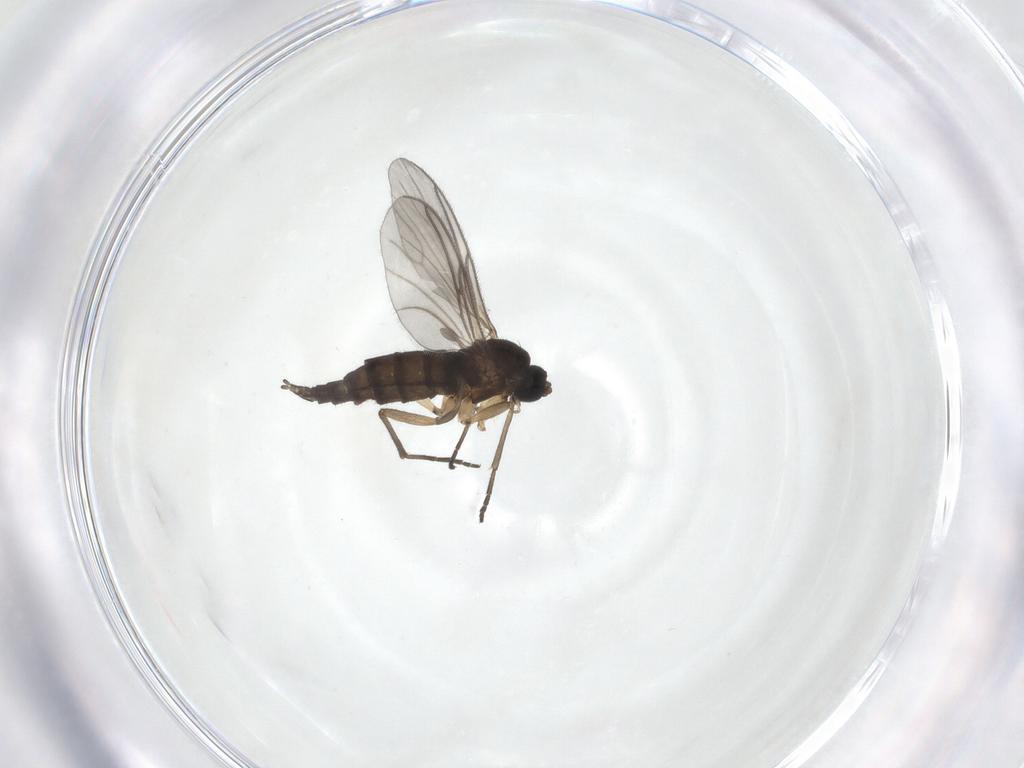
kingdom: Animalia
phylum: Arthropoda
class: Insecta
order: Diptera
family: Sciaridae
